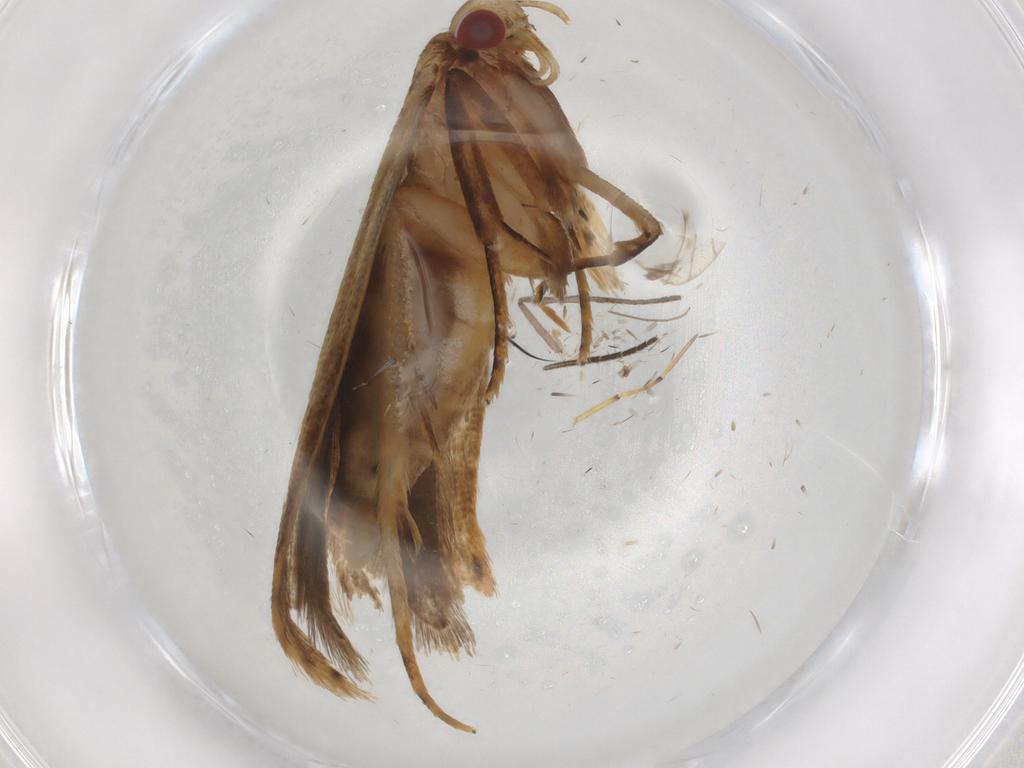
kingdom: Animalia
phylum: Arthropoda
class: Insecta
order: Lepidoptera
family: Depressariidae
